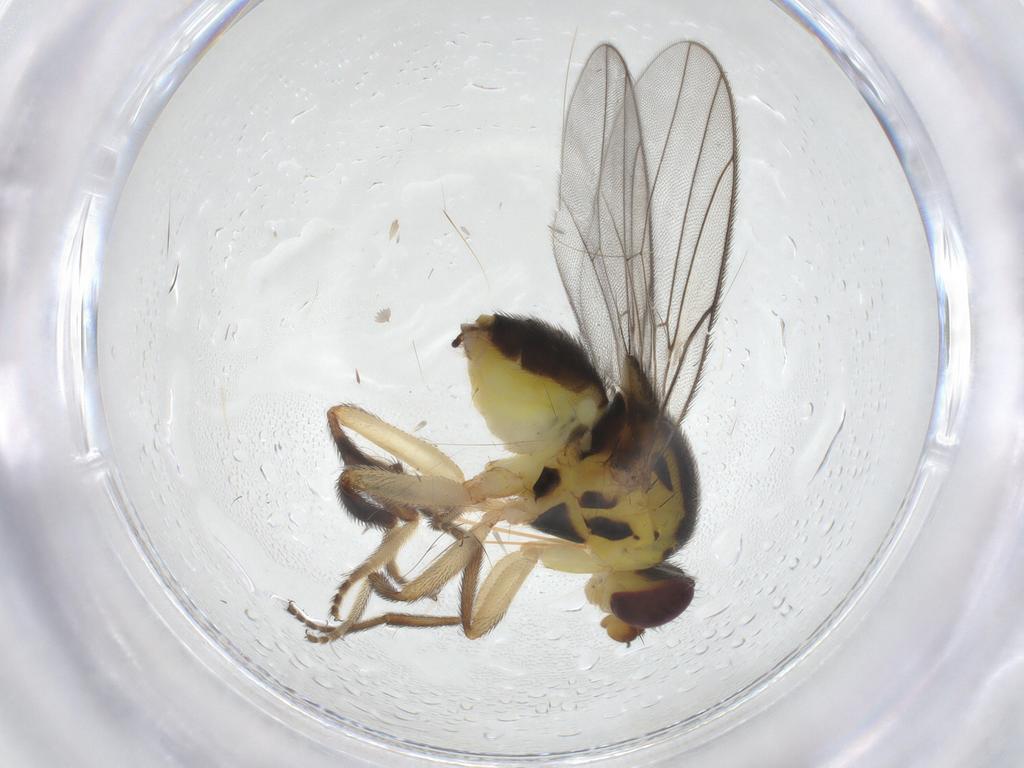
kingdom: Animalia
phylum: Arthropoda
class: Insecta
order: Diptera
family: Chloropidae
